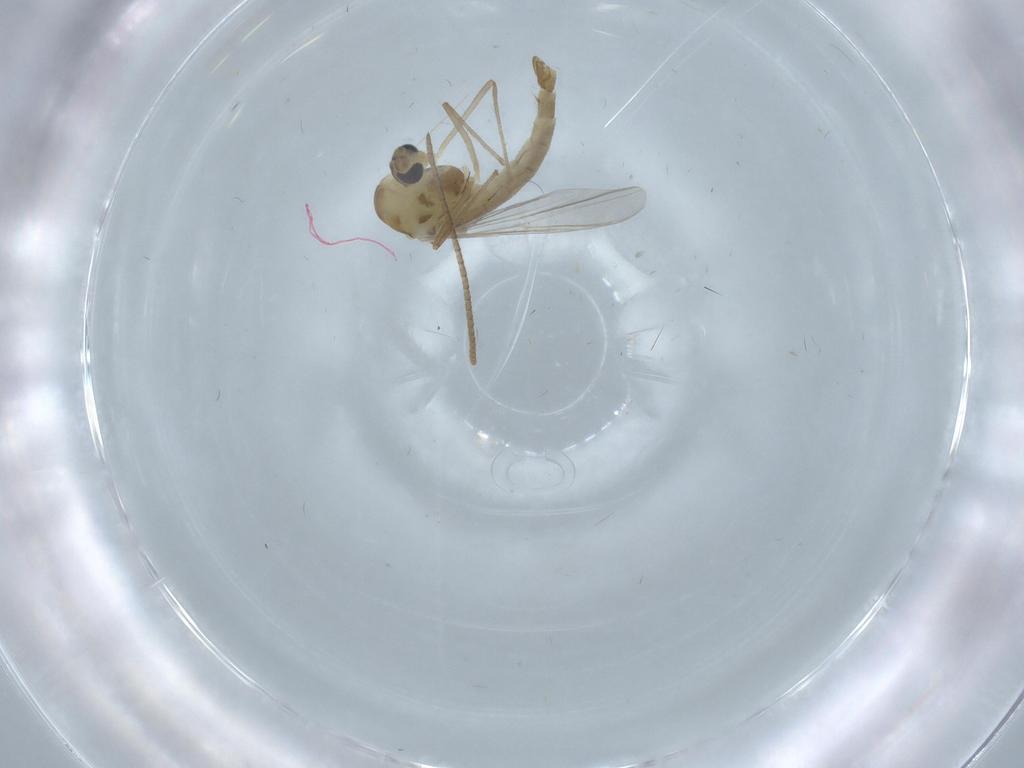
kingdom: Animalia
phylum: Arthropoda
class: Insecta
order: Diptera
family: Chironomidae
